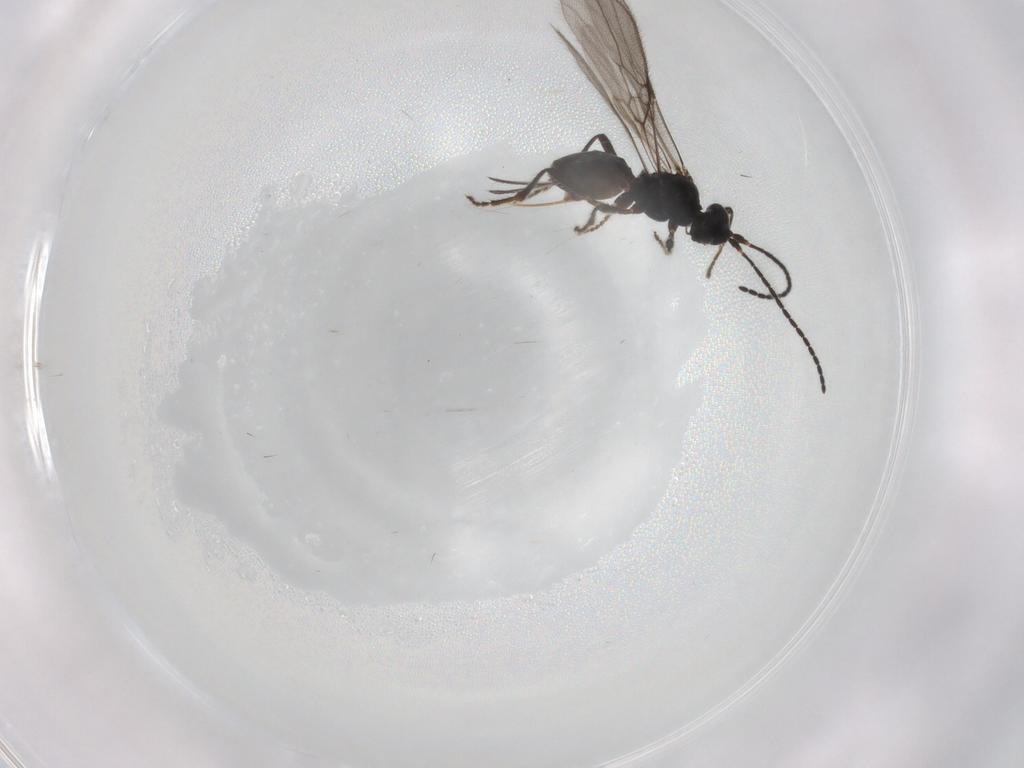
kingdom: Animalia
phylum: Arthropoda
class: Insecta
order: Hymenoptera
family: Braconidae
